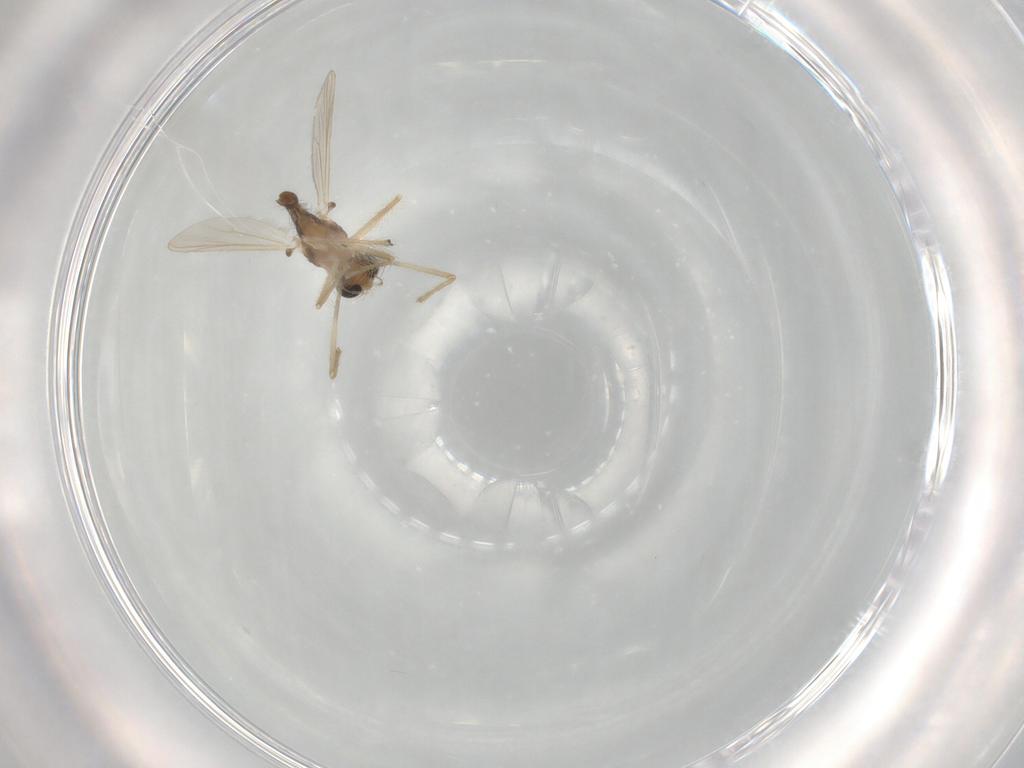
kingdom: Animalia
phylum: Arthropoda
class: Insecta
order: Diptera
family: Chironomidae
